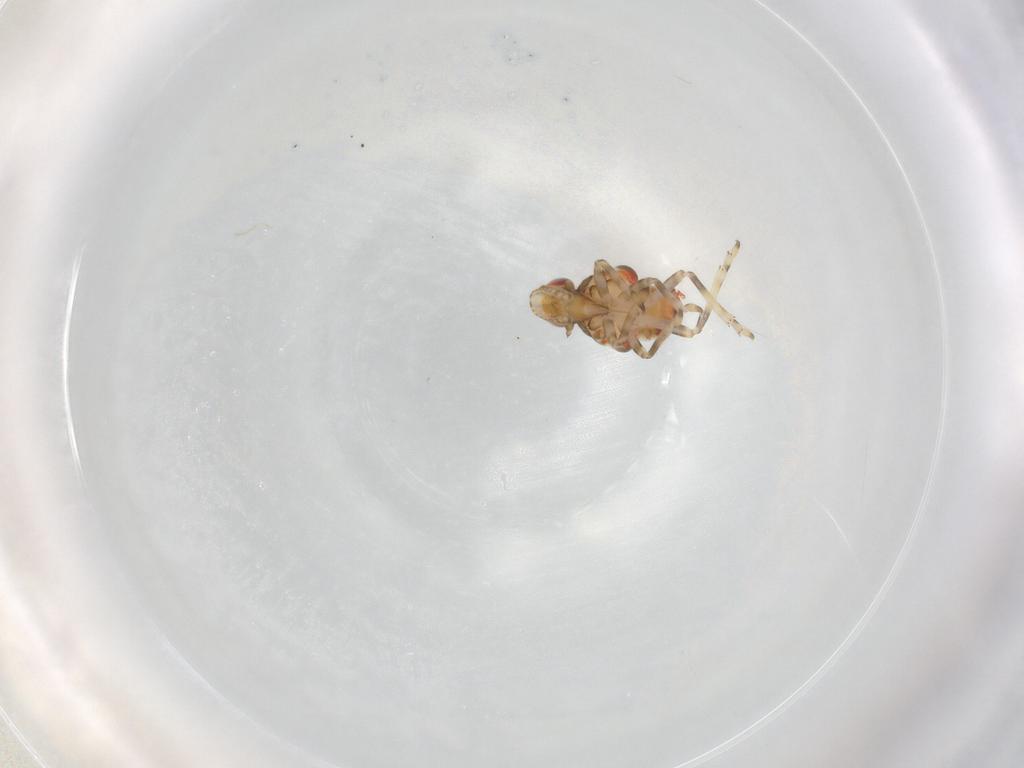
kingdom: Animalia
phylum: Arthropoda
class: Insecta
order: Hemiptera
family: Tropiduchidae
